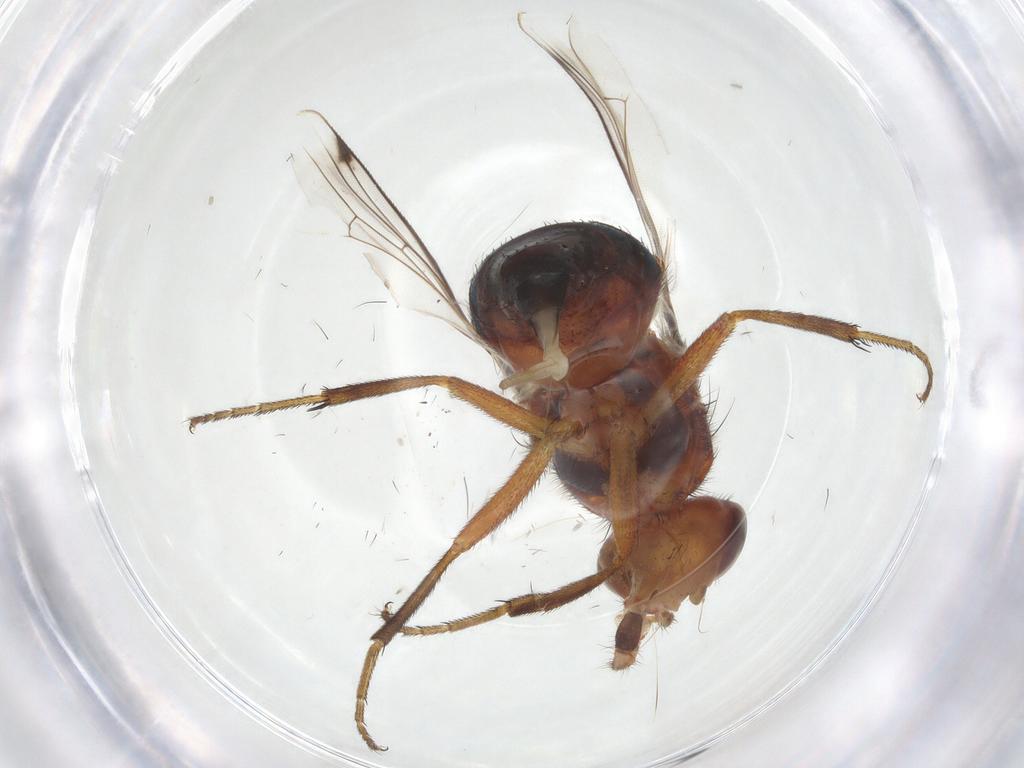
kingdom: Animalia
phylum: Arthropoda
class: Insecta
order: Diptera
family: Richardiidae
